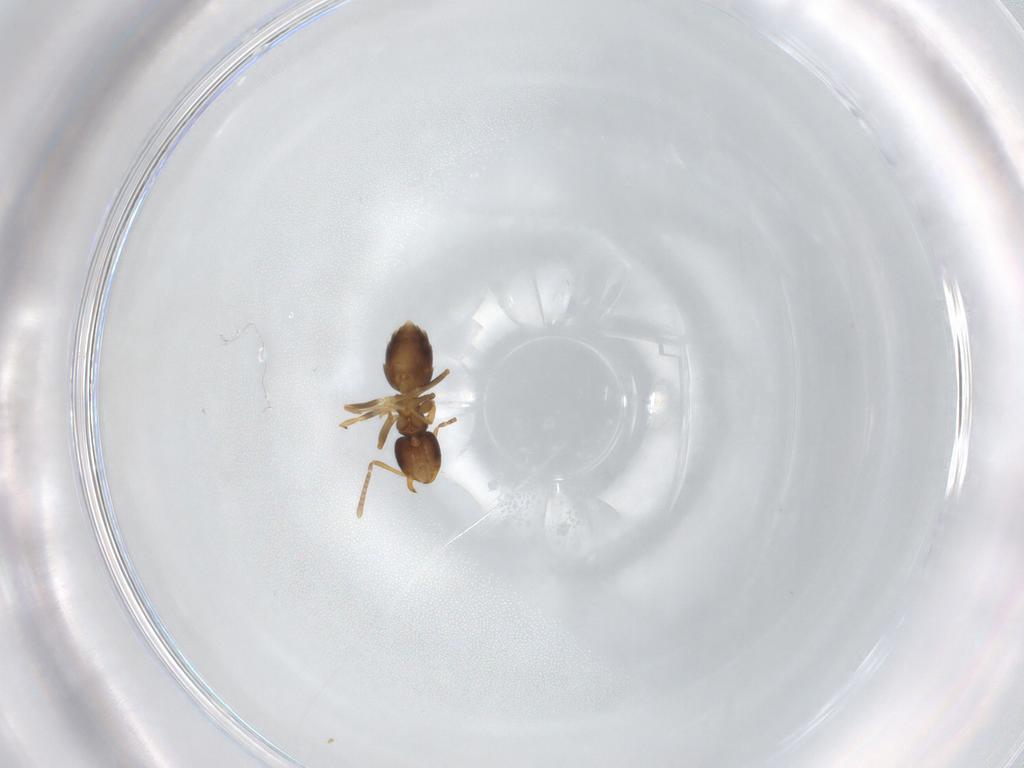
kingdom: Animalia
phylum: Arthropoda
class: Insecta
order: Hymenoptera
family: Formicidae
